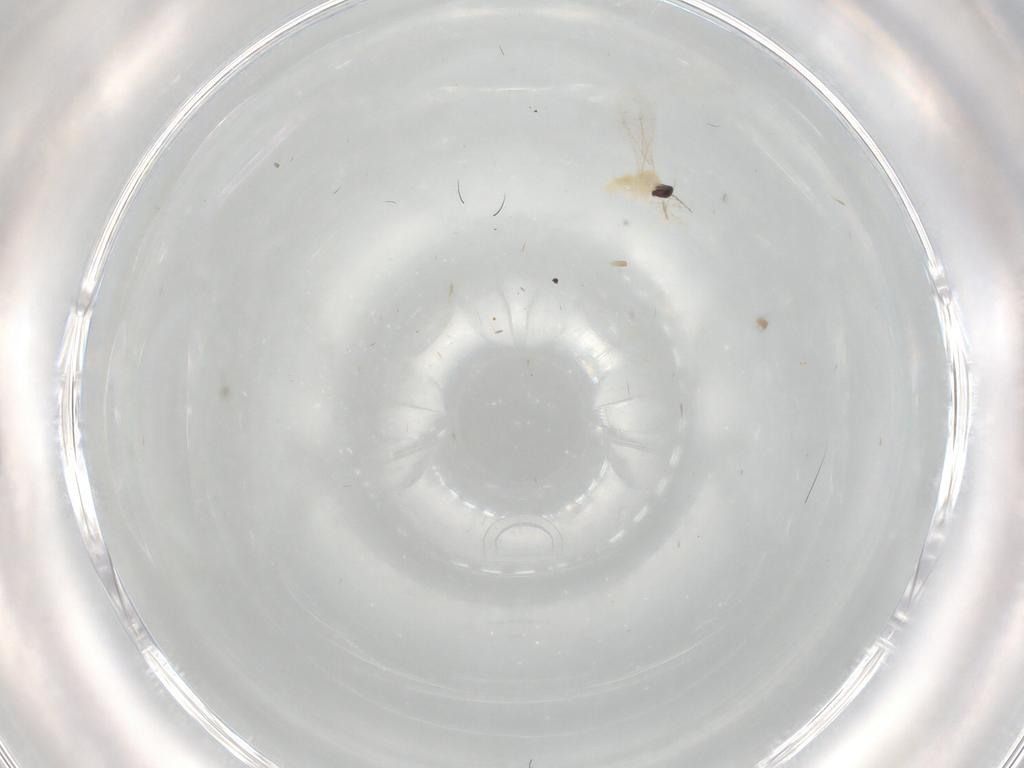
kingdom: Animalia
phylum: Arthropoda
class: Insecta
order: Diptera
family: Cecidomyiidae
